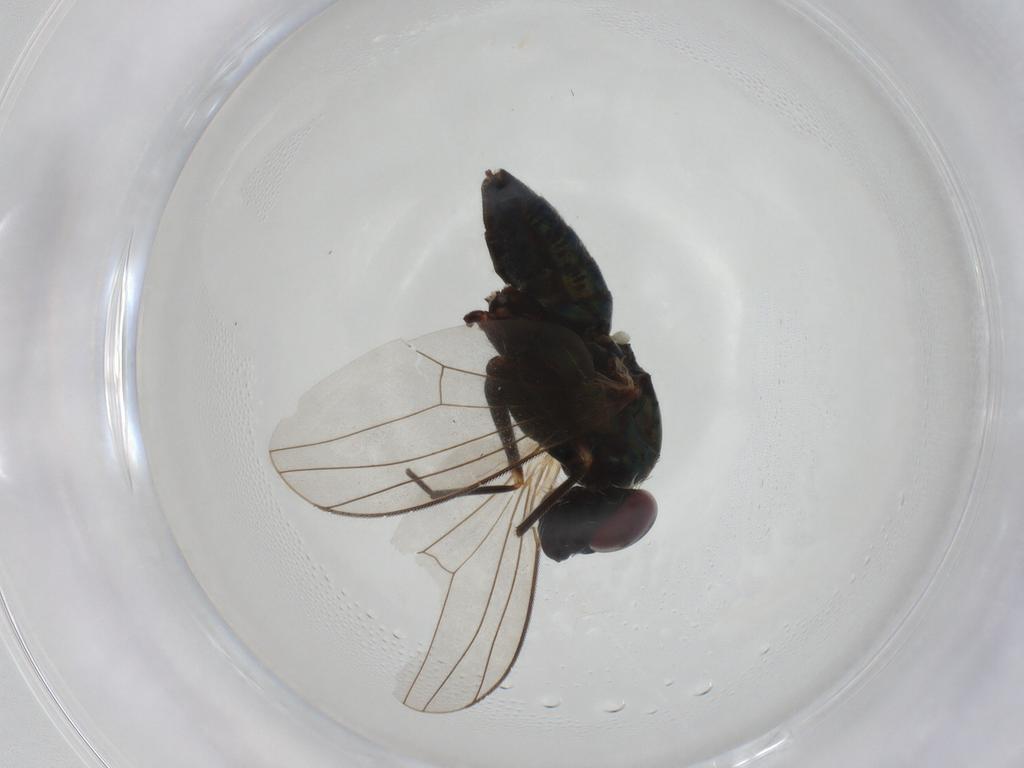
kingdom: Animalia
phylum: Arthropoda
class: Insecta
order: Diptera
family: Dolichopodidae
